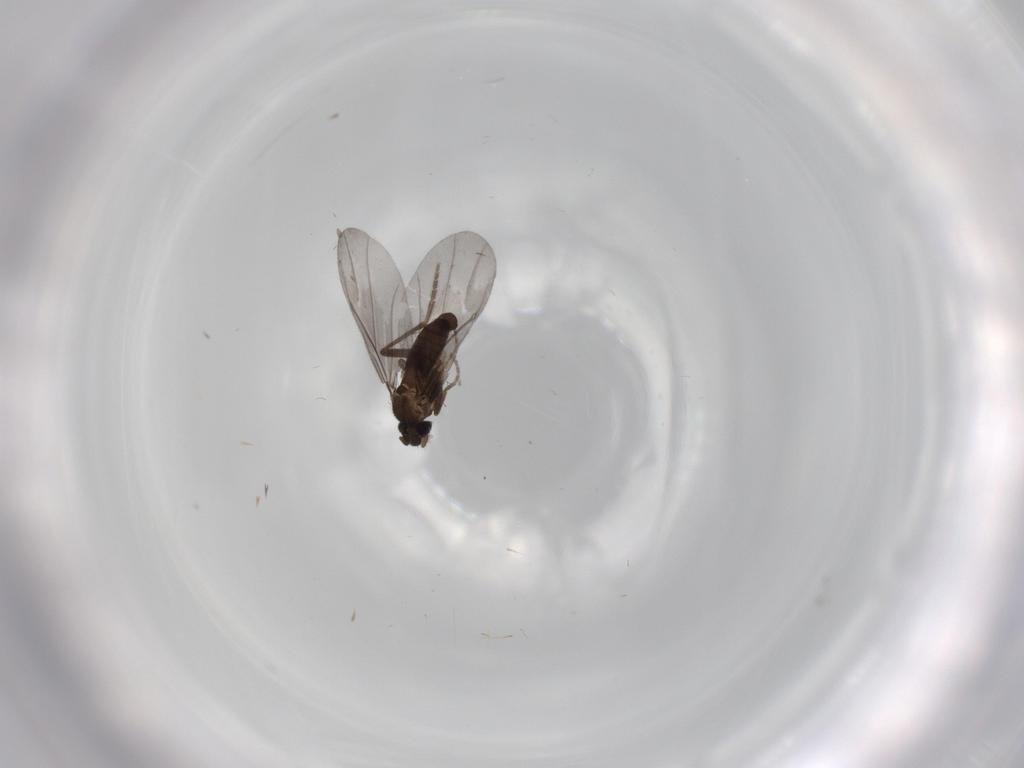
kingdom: Animalia
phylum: Arthropoda
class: Insecta
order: Diptera
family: Phoridae
